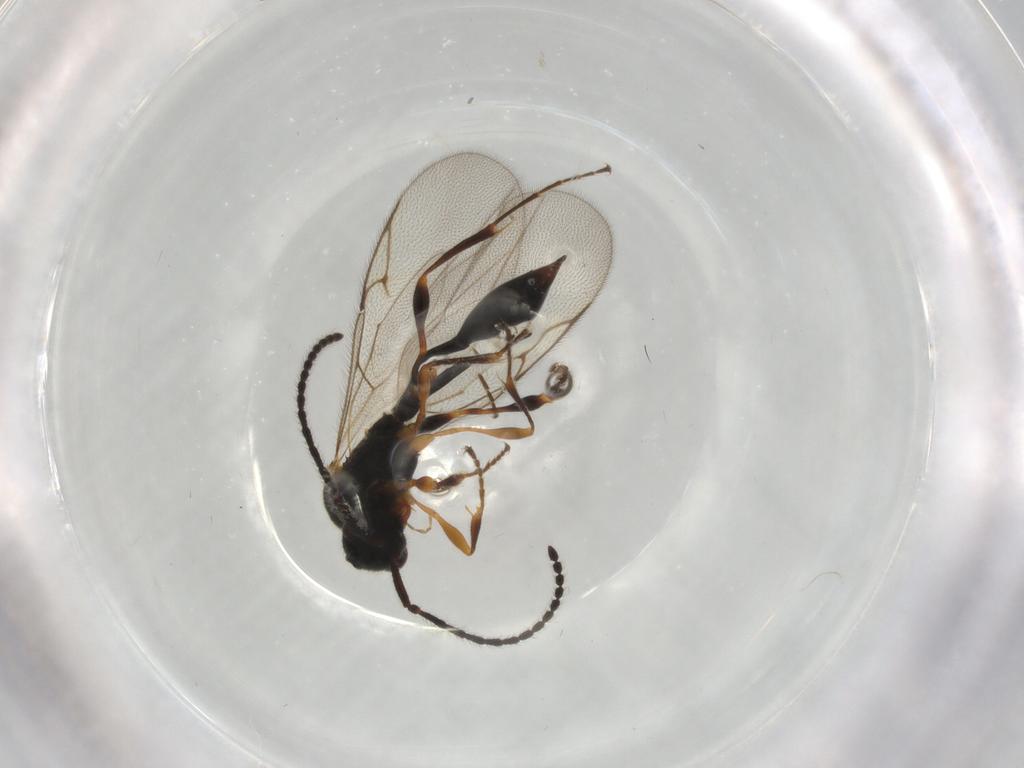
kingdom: Animalia
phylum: Arthropoda
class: Insecta
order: Hymenoptera
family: Diapriidae
